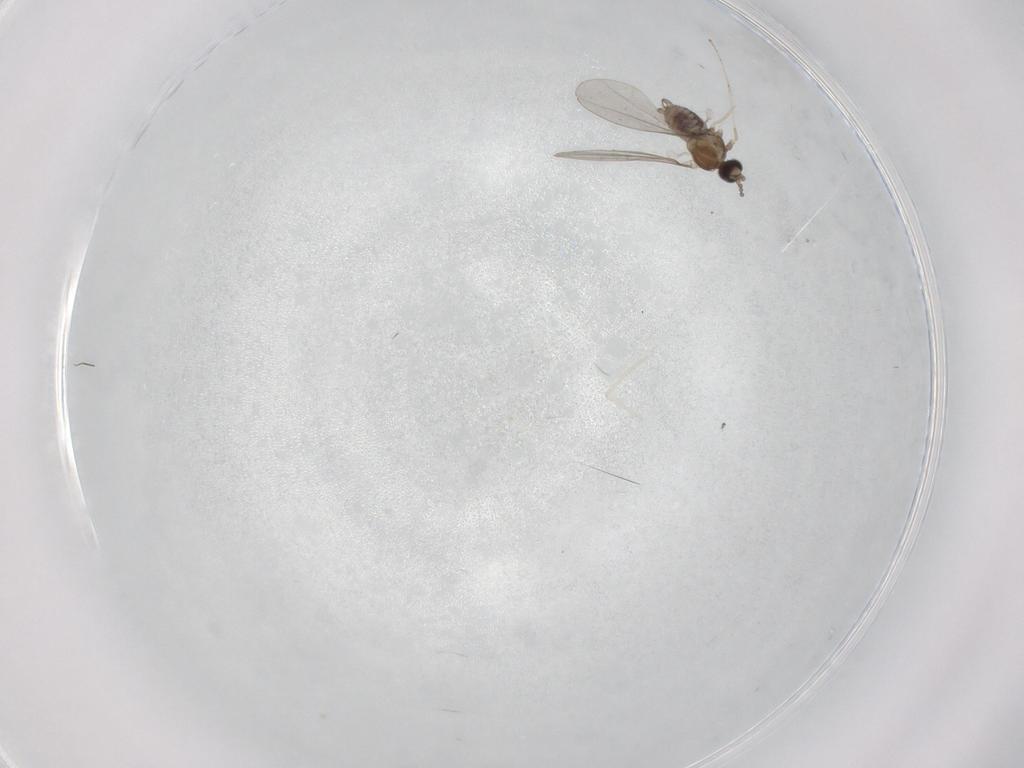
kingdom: Animalia
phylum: Arthropoda
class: Insecta
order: Diptera
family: Cecidomyiidae
